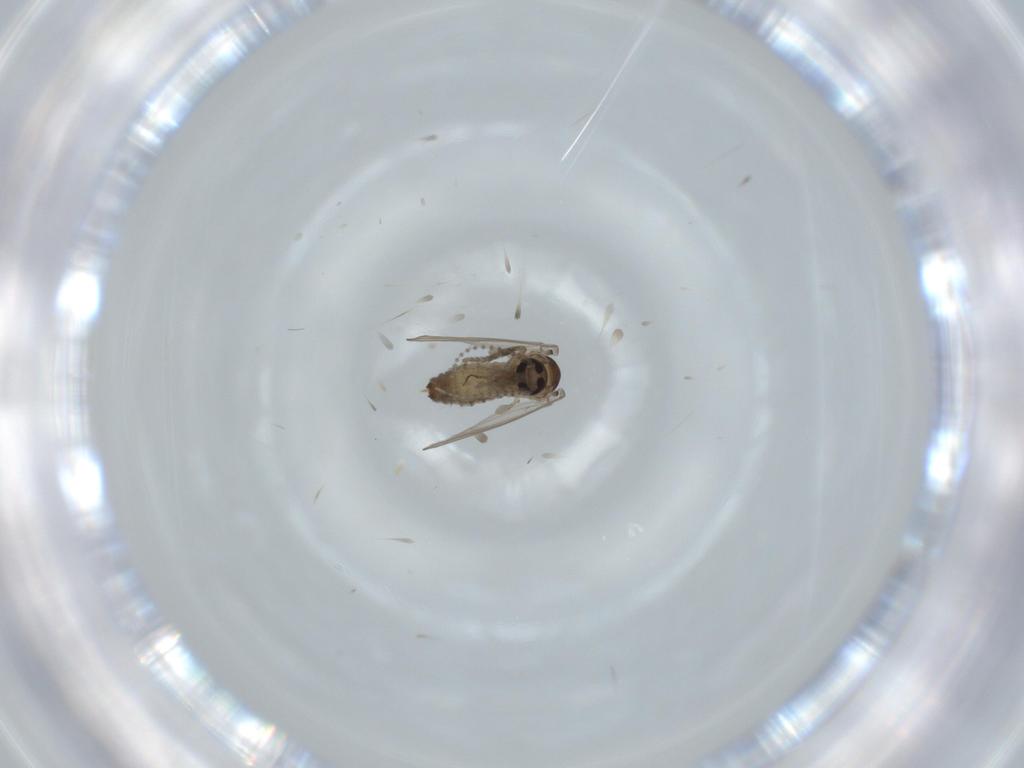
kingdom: Animalia
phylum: Arthropoda
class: Insecta
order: Diptera
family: Psychodidae
